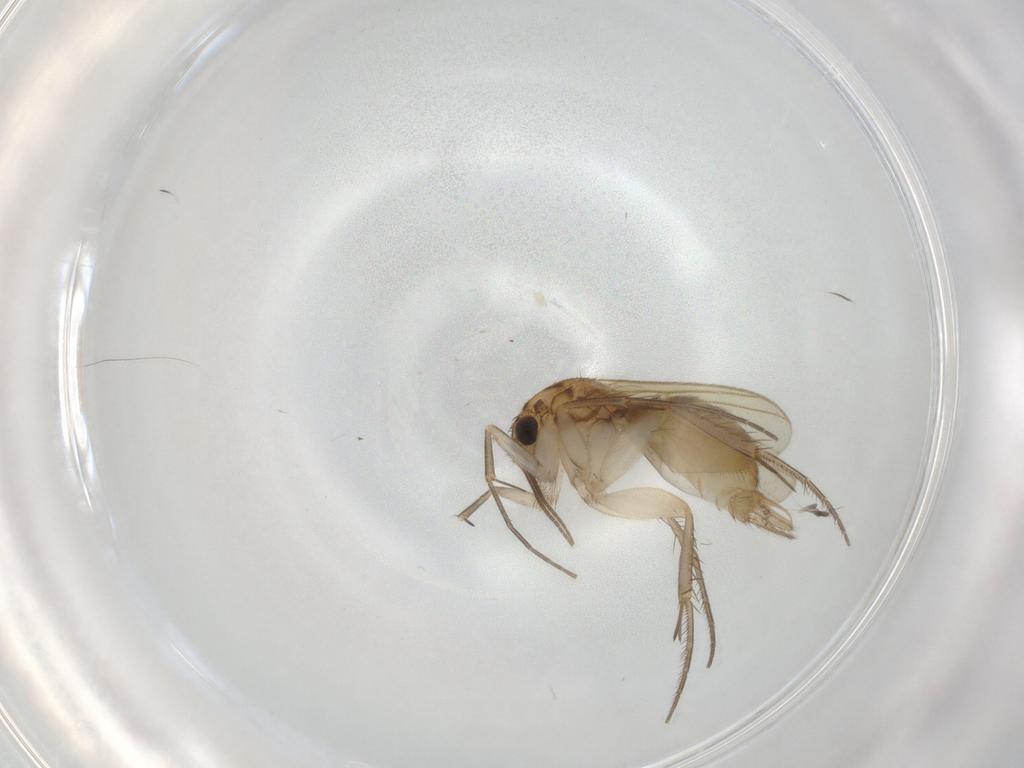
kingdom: Animalia
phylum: Arthropoda
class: Insecta
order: Diptera
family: Mycetophilidae
